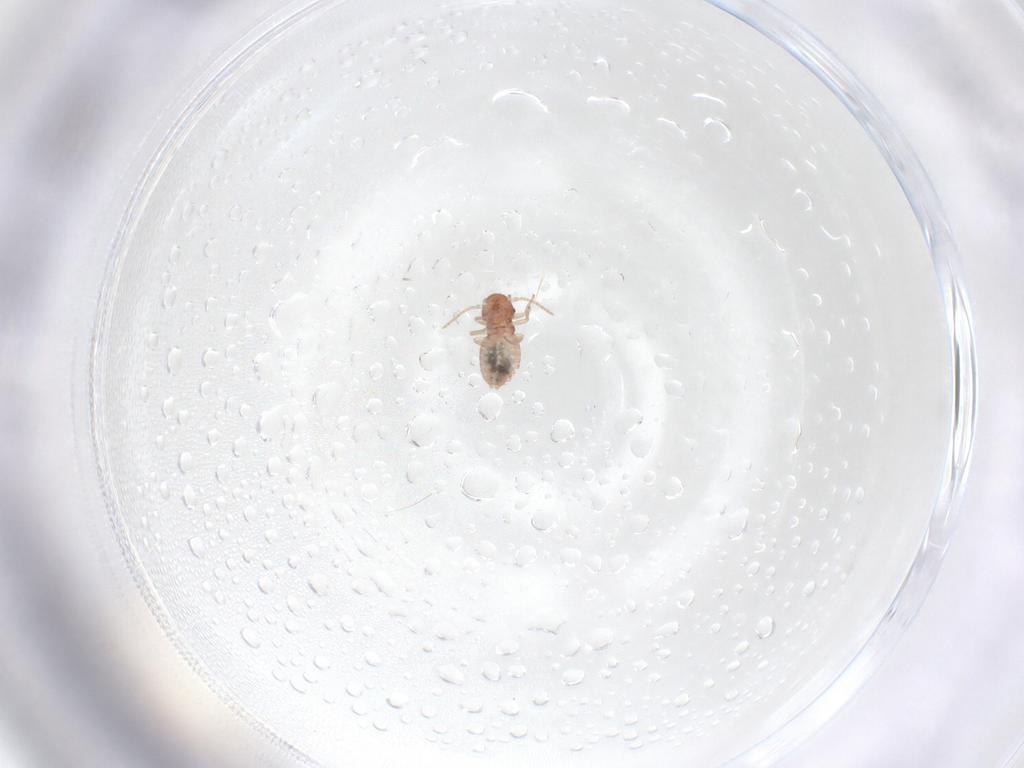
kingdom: Animalia
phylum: Arthropoda
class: Insecta
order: Psocodea
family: Caeciliusidae
